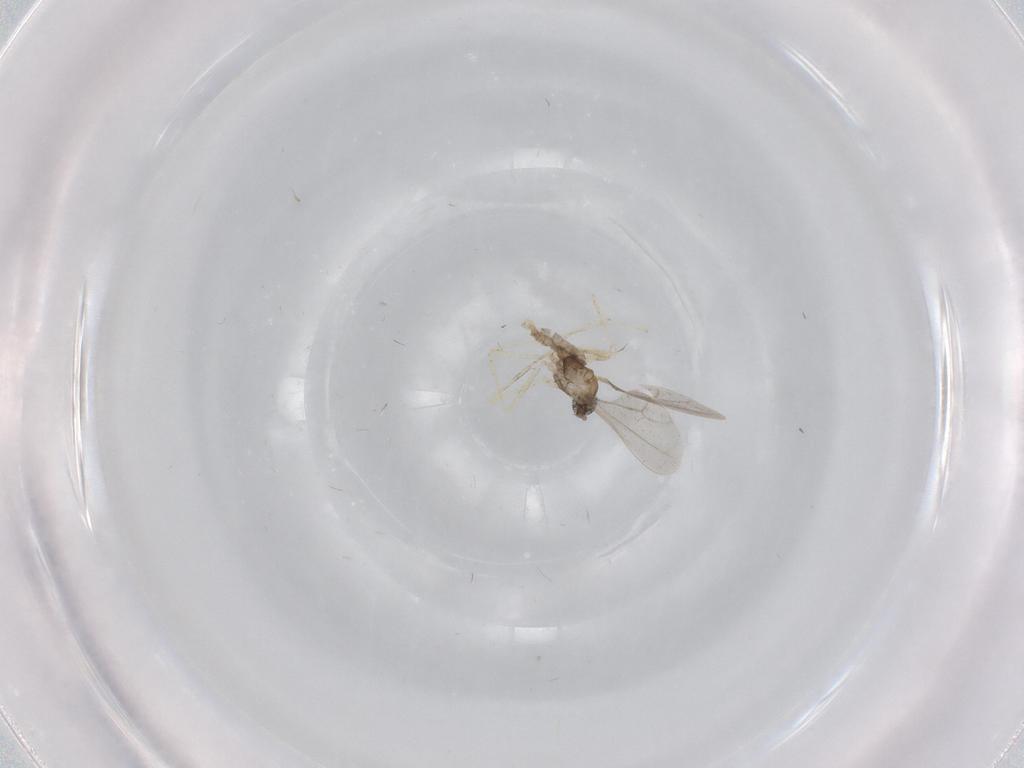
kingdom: Animalia
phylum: Arthropoda
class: Insecta
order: Diptera
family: Cecidomyiidae
